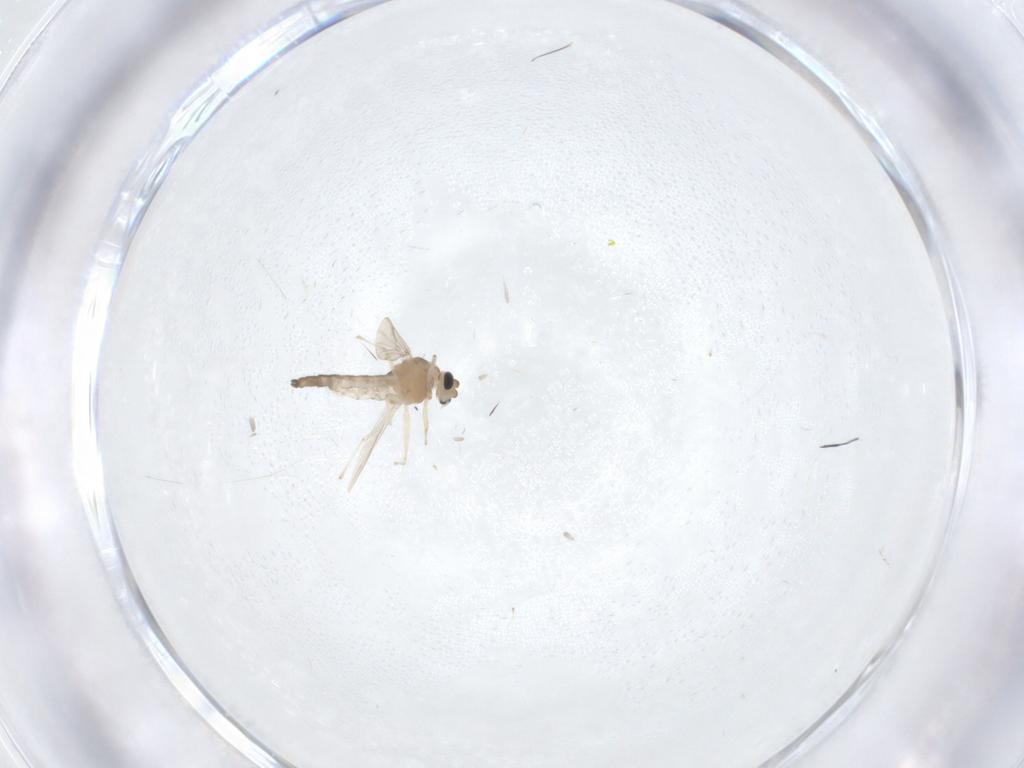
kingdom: Animalia
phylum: Arthropoda
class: Insecta
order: Diptera
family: Chironomidae
